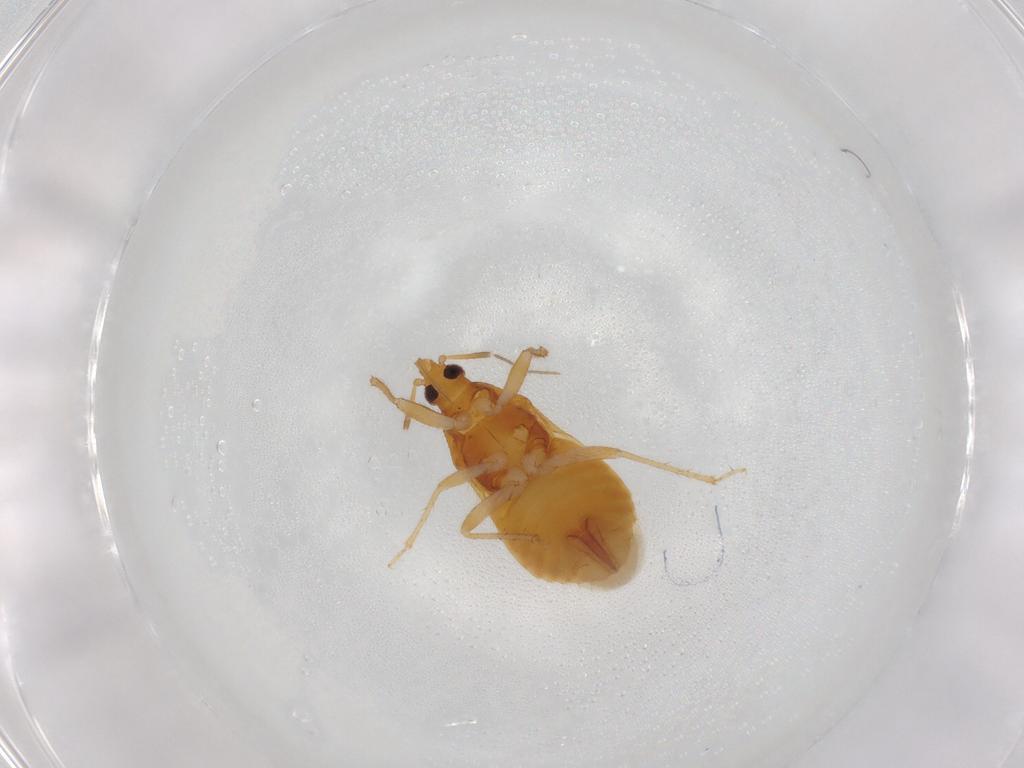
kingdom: Animalia
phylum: Arthropoda
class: Insecta
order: Hemiptera
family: Lasiochilidae
